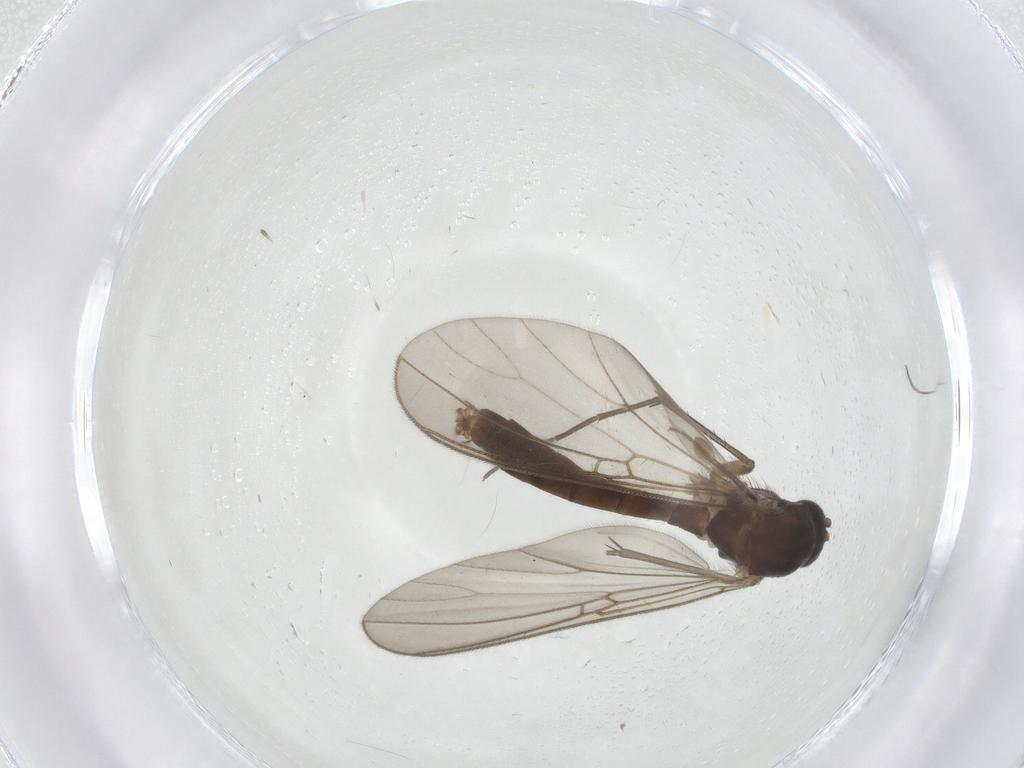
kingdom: Animalia
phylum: Arthropoda
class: Insecta
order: Diptera
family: Mycetophilidae
